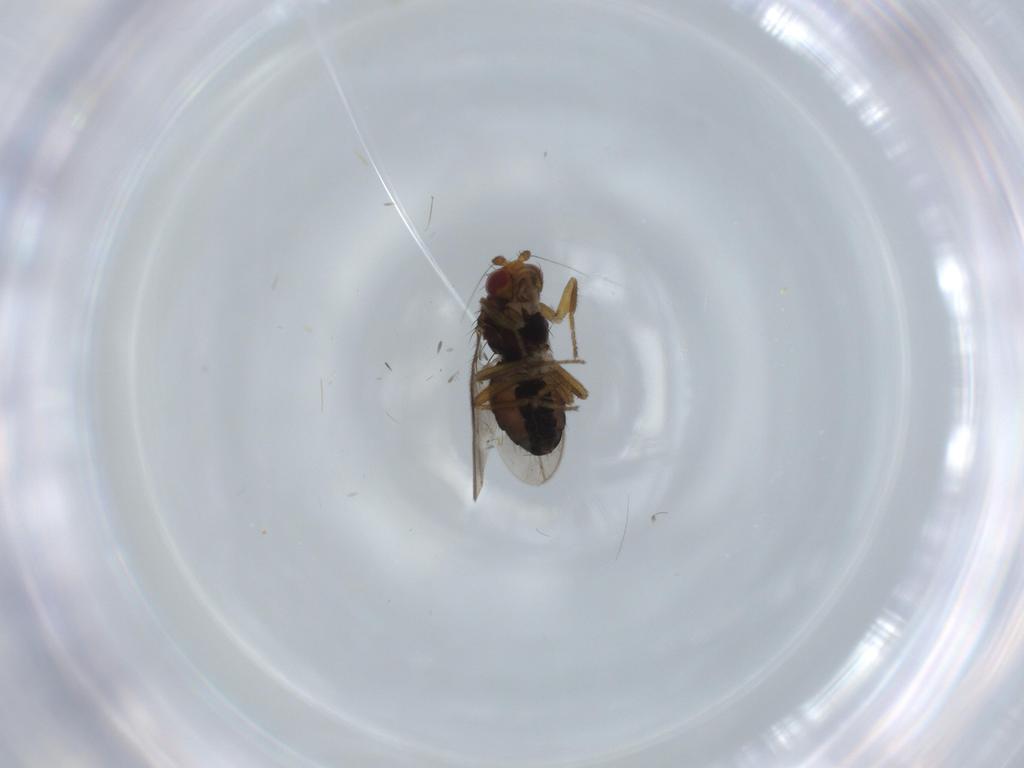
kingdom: Animalia
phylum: Arthropoda
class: Insecta
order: Diptera
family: Sphaeroceridae
